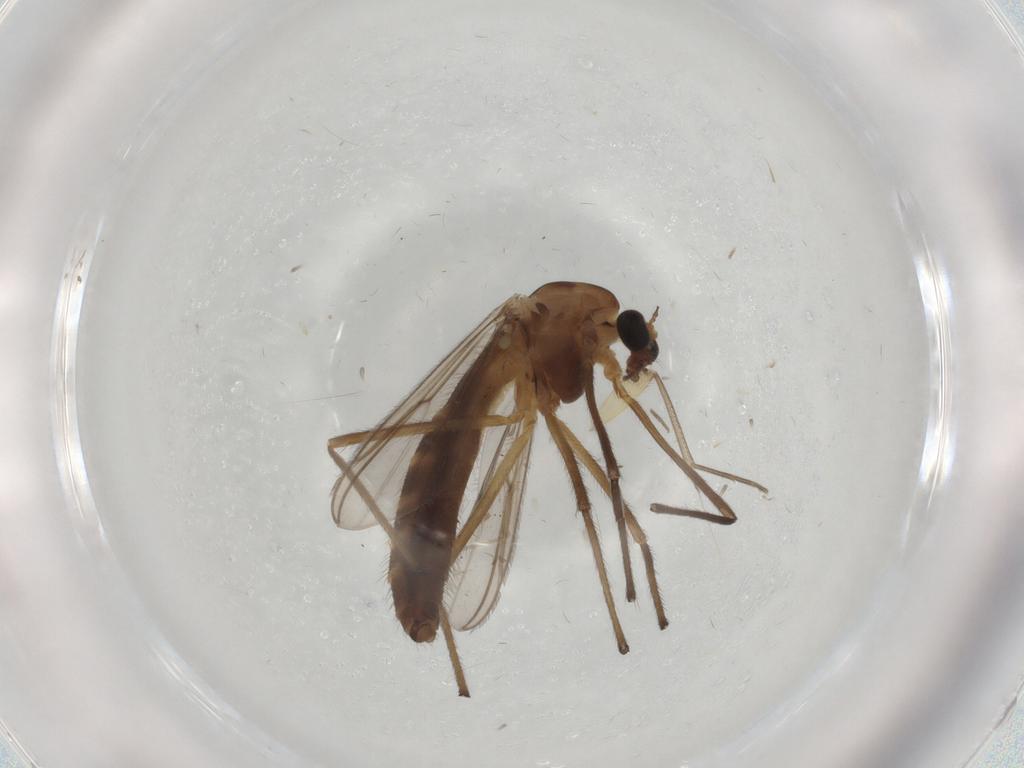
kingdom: Animalia
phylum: Arthropoda
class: Insecta
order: Diptera
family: Chironomidae
